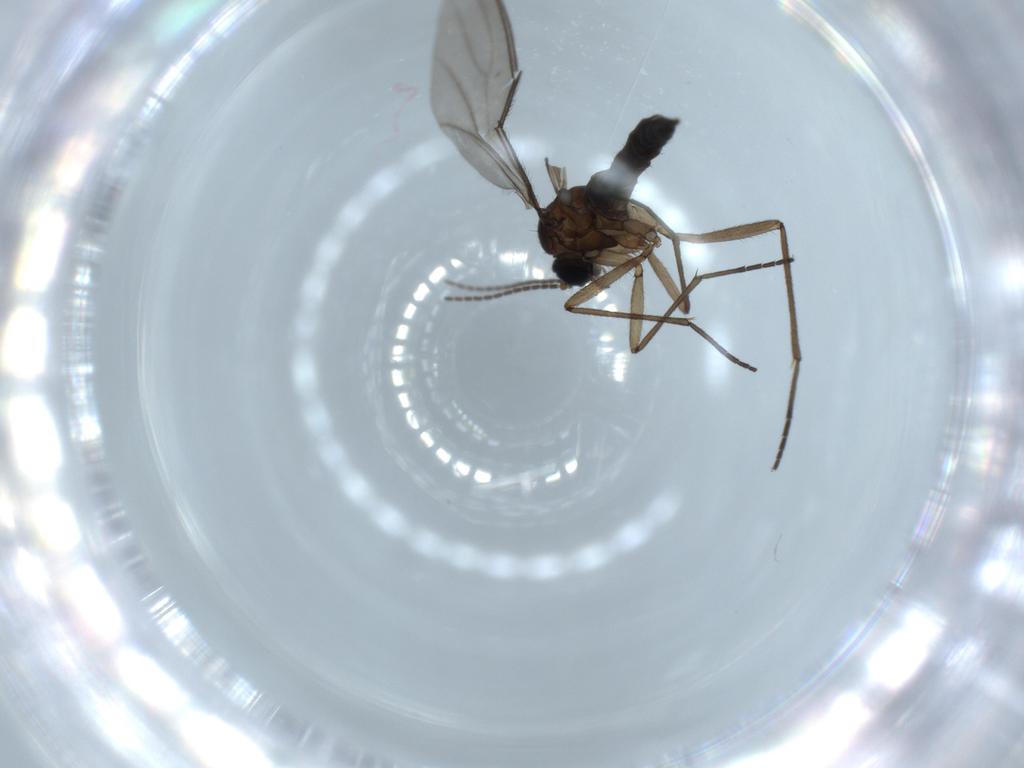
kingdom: Animalia
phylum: Arthropoda
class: Insecta
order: Diptera
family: Sciaridae
